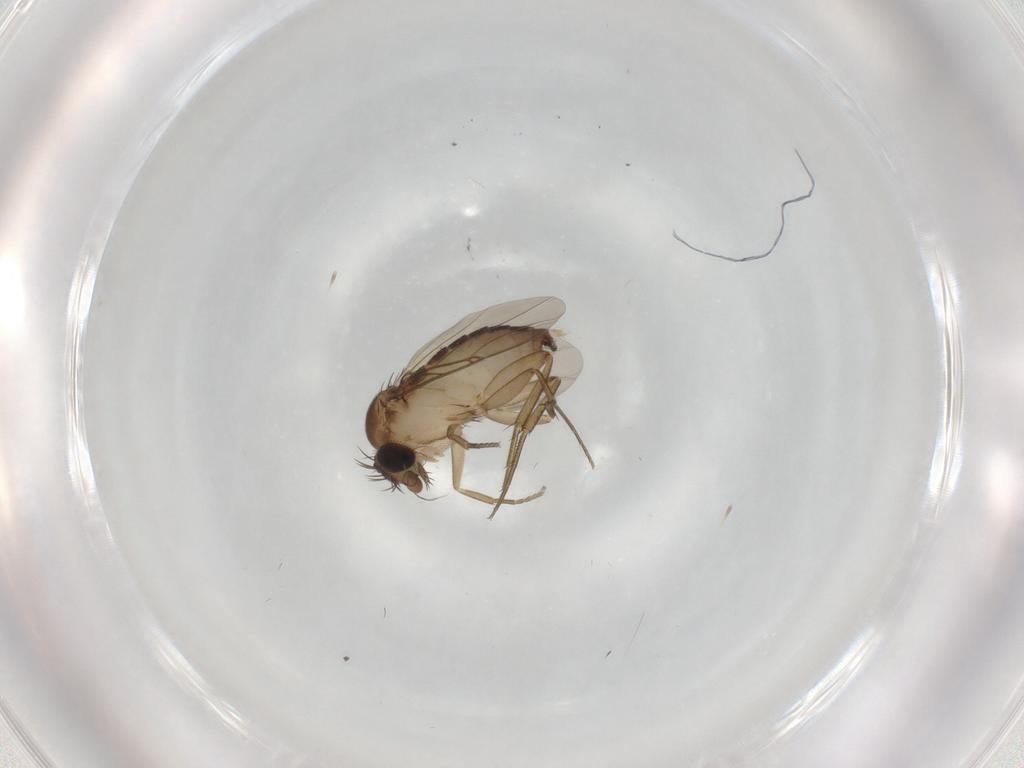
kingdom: Animalia
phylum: Arthropoda
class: Insecta
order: Diptera
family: Phoridae
